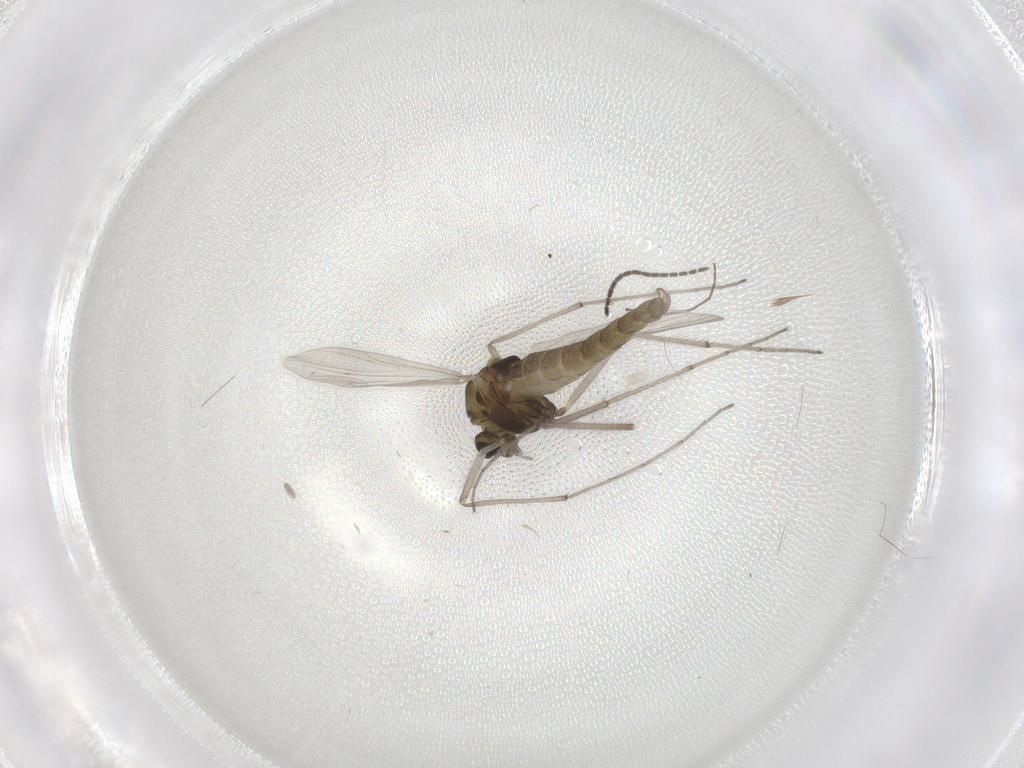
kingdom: Animalia
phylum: Arthropoda
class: Insecta
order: Diptera
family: Chironomidae
